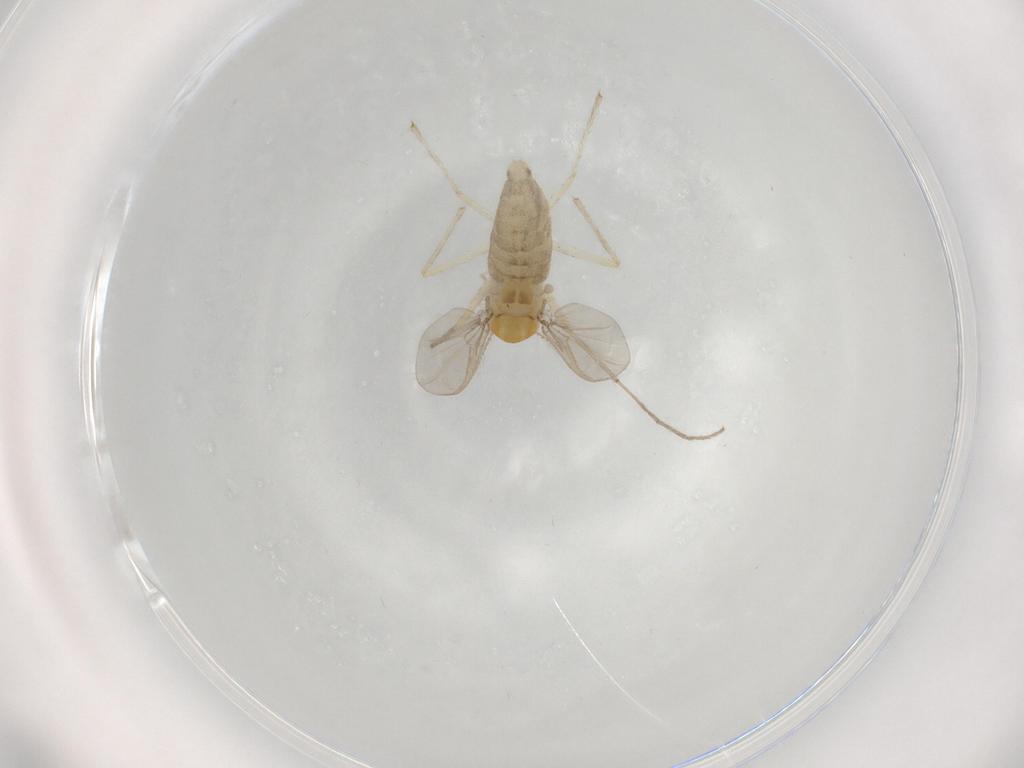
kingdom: Animalia
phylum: Arthropoda
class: Insecta
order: Diptera
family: Chironomidae
